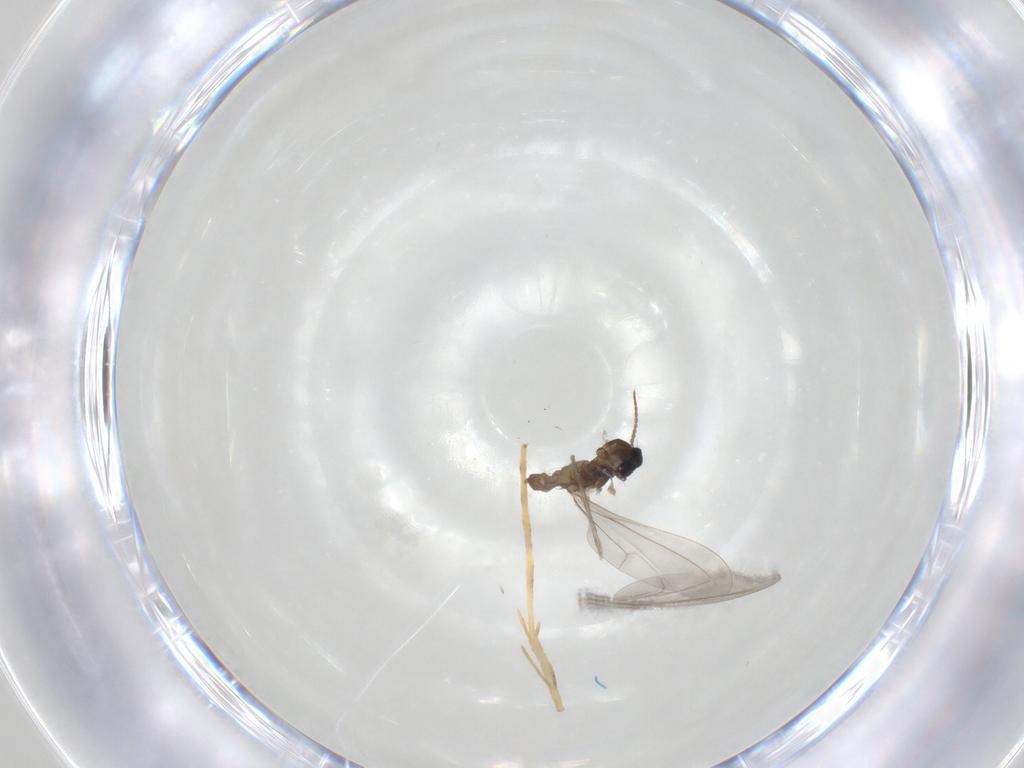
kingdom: Animalia
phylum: Arthropoda
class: Insecta
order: Diptera
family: Cecidomyiidae
